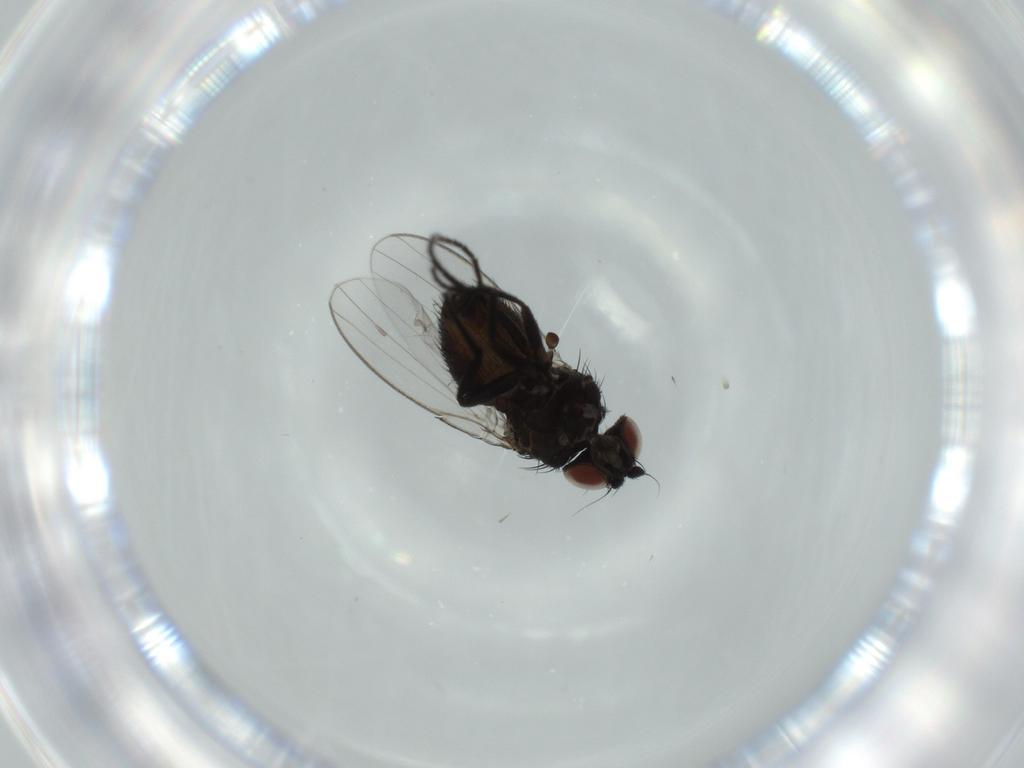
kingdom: Animalia
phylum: Arthropoda
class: Insecta
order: Diptera
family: Milichiidae
